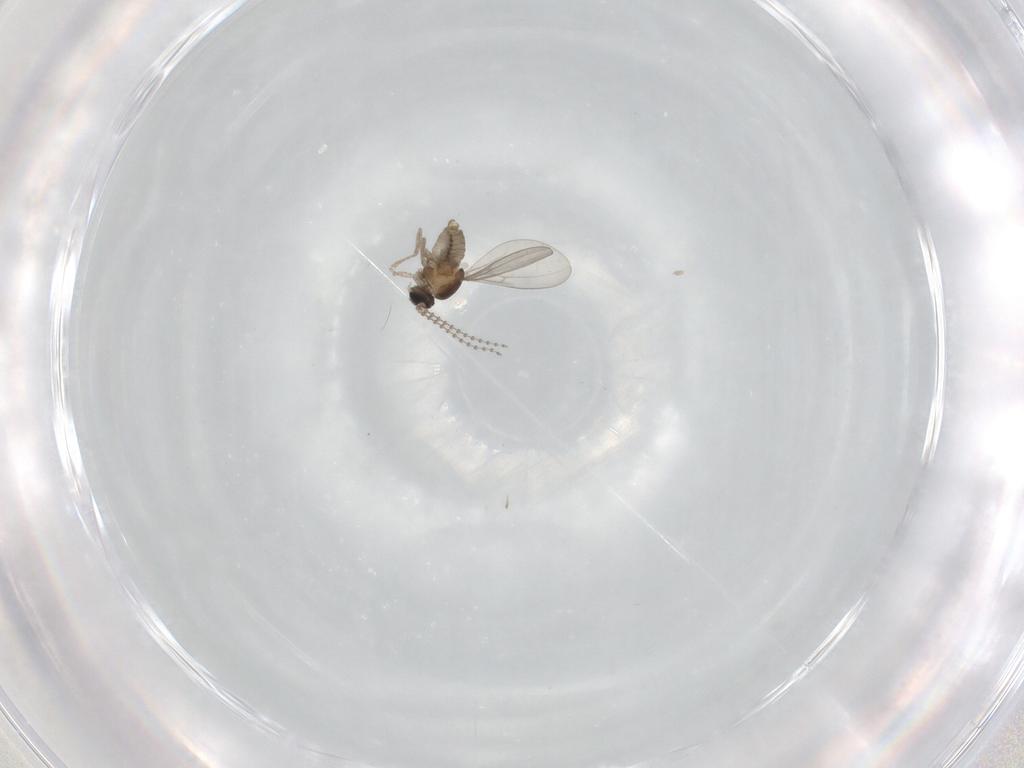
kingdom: Animalia
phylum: Arthropoda
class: Insecta
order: Diptera
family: Cecidomyiidae
